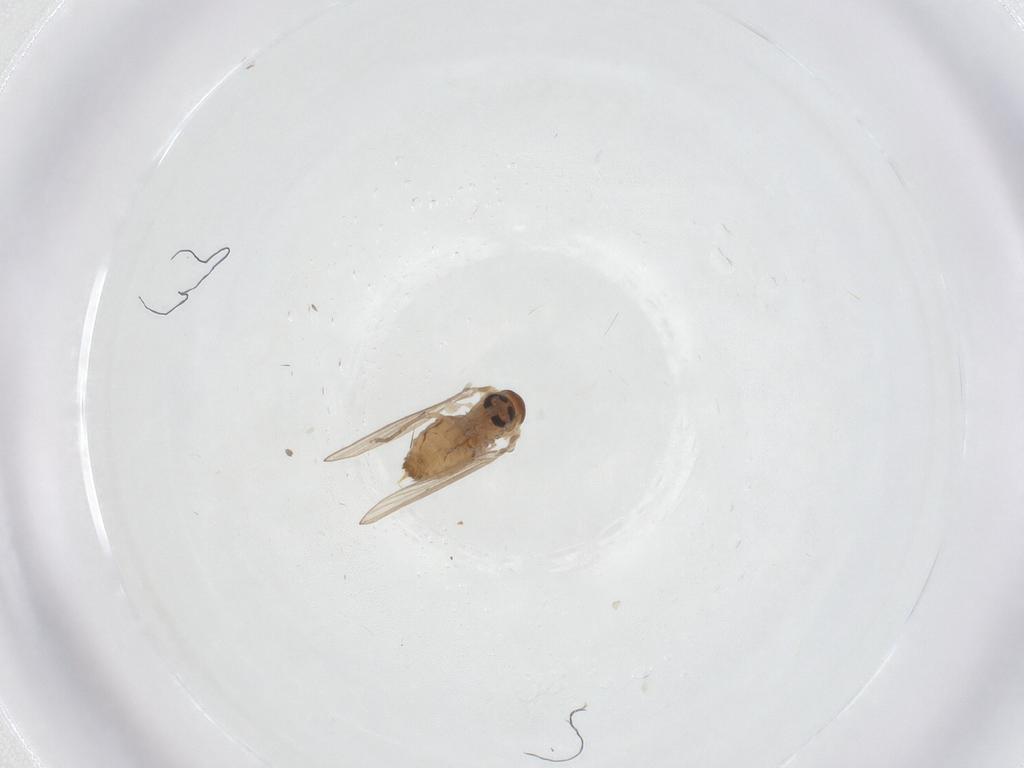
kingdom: Animalia
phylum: Arthropoda
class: Insecta
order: Diptera
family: Psychodidae
